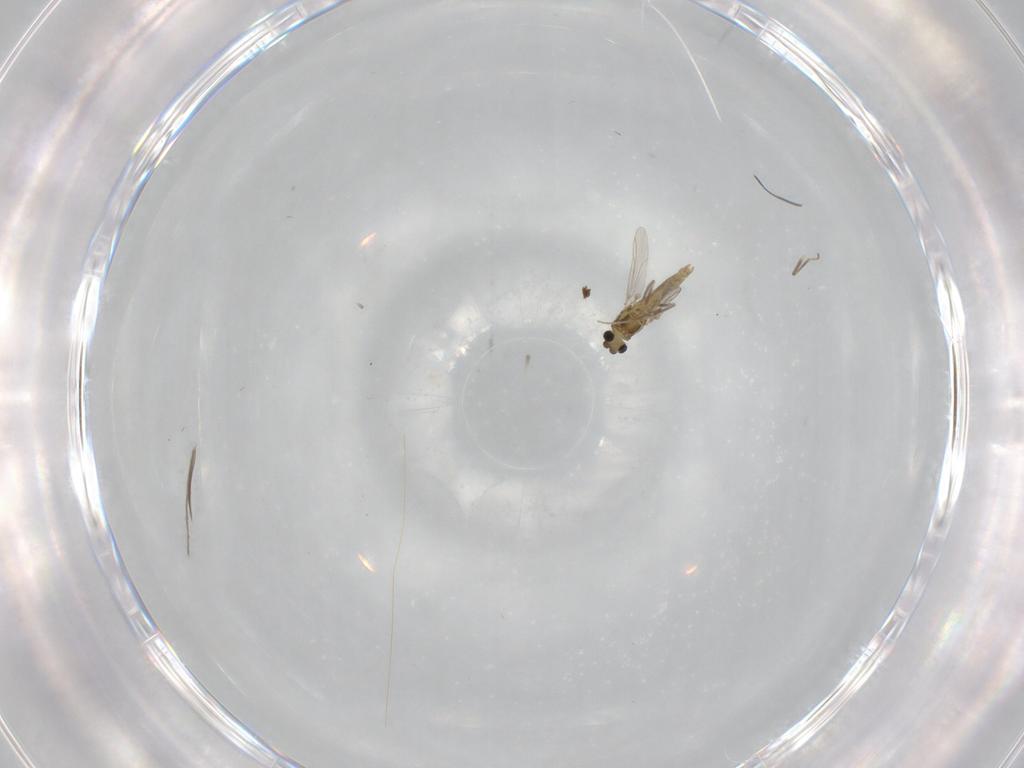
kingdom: Animalia
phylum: Arthropoda
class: Insecta
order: Diptera
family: Chironomidae
